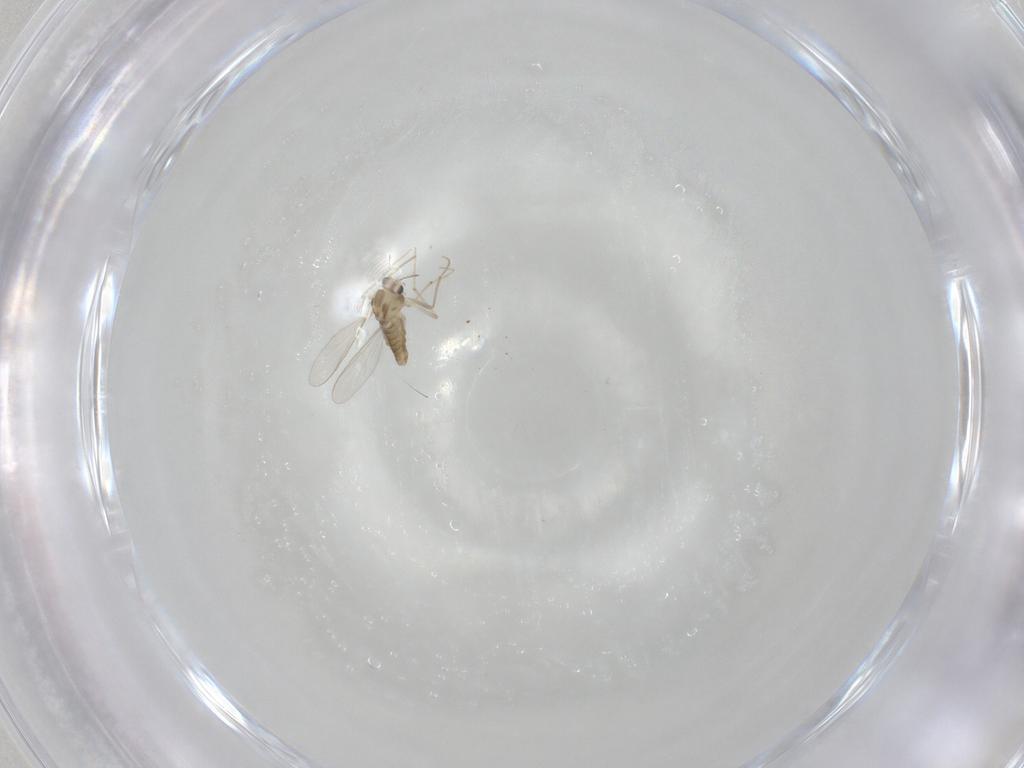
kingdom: Animalia
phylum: Arthropoda
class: Insecta
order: Diptera
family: Chironomidae
